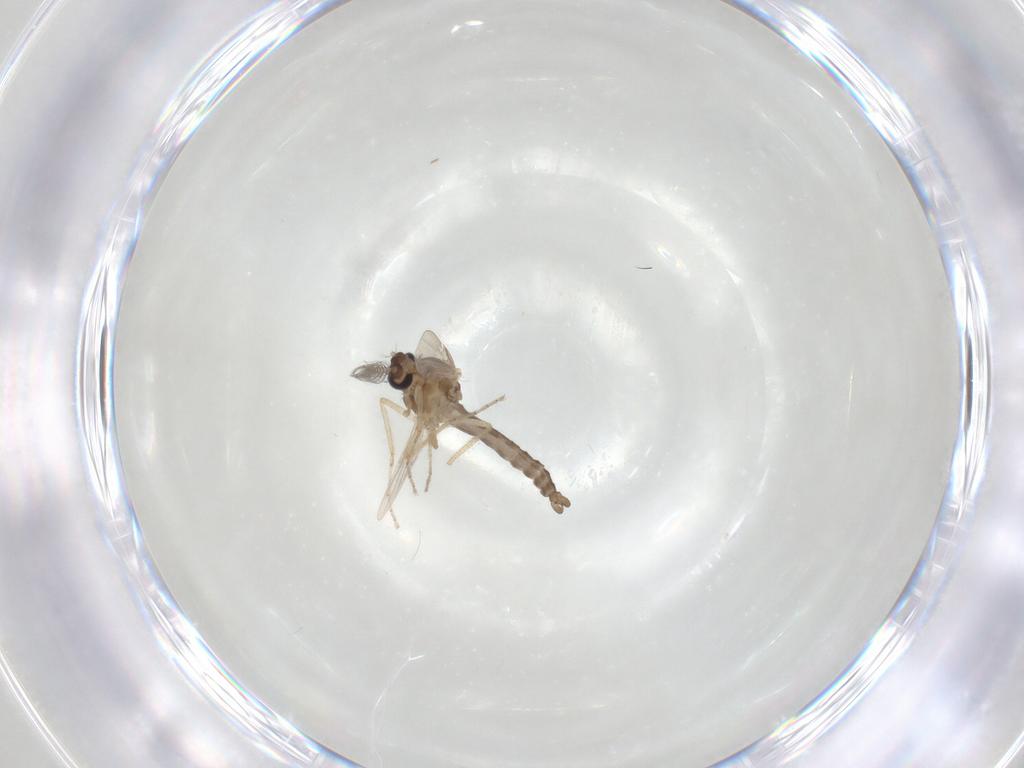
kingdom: Animalia
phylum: Arthropoda
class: Insecta
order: Diptera
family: Ceratopogonidae
